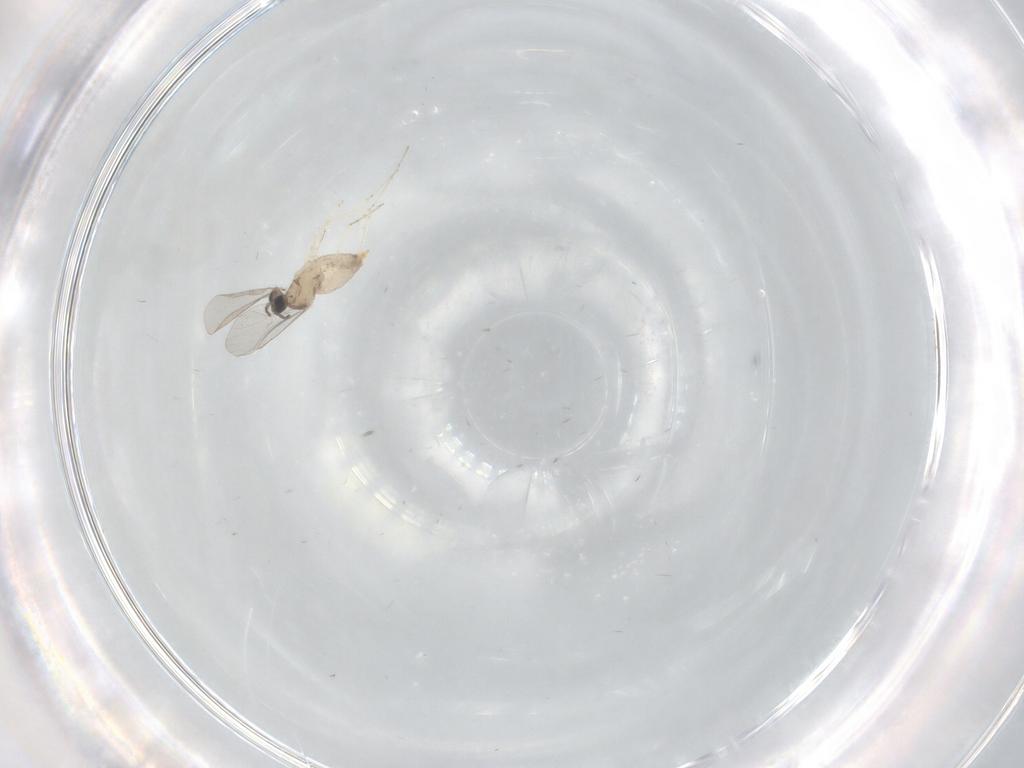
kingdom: Animalia
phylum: Arthropoda
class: Insecta
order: Diptera
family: Cecidomyiidae
